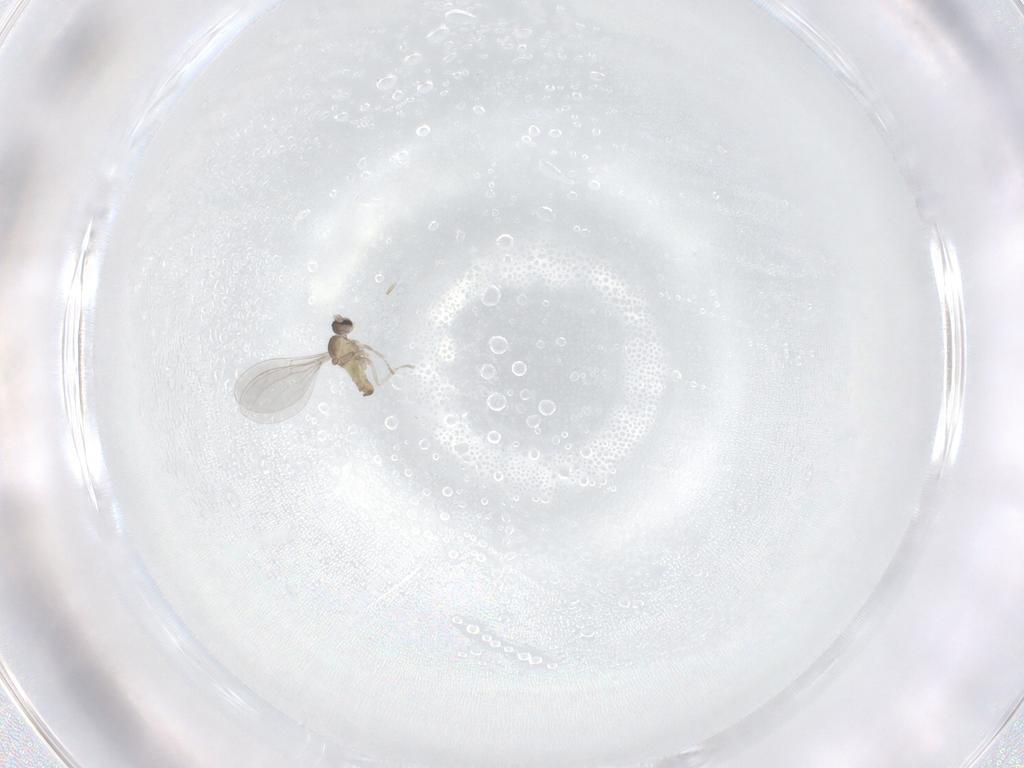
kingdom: Animalia
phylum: Arthropoda
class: Insecta
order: Diptera
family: Cecidomyiidae
